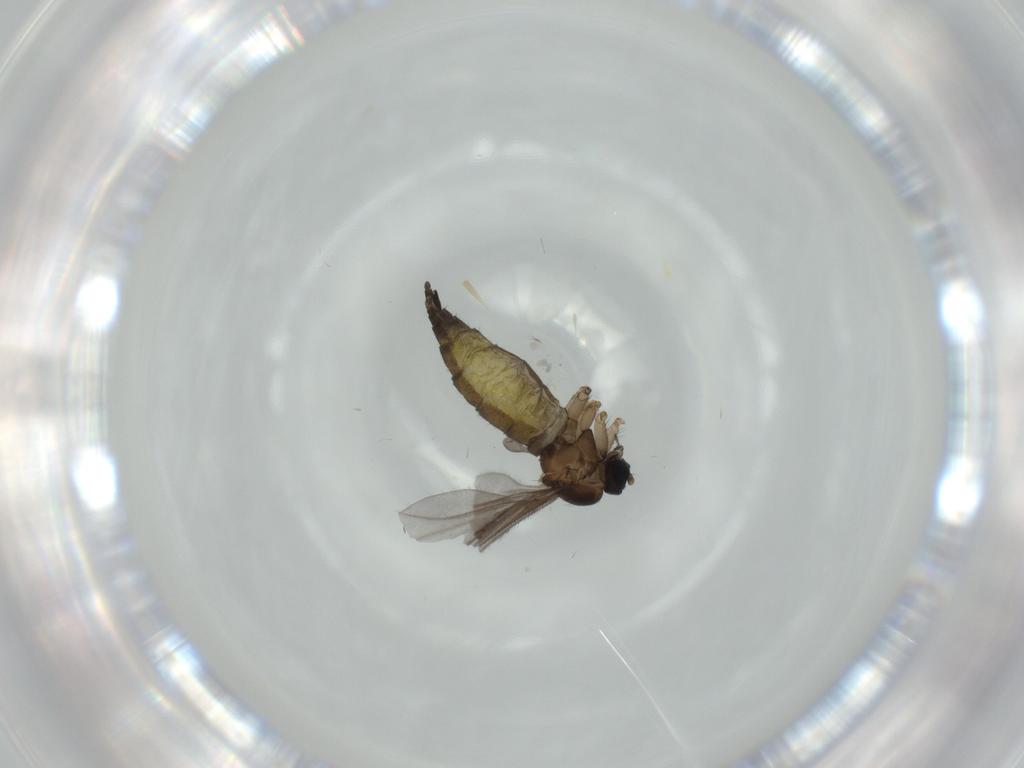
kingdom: Animalia
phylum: Arthropoda
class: Insecta
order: Diptera
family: Sciaridae
